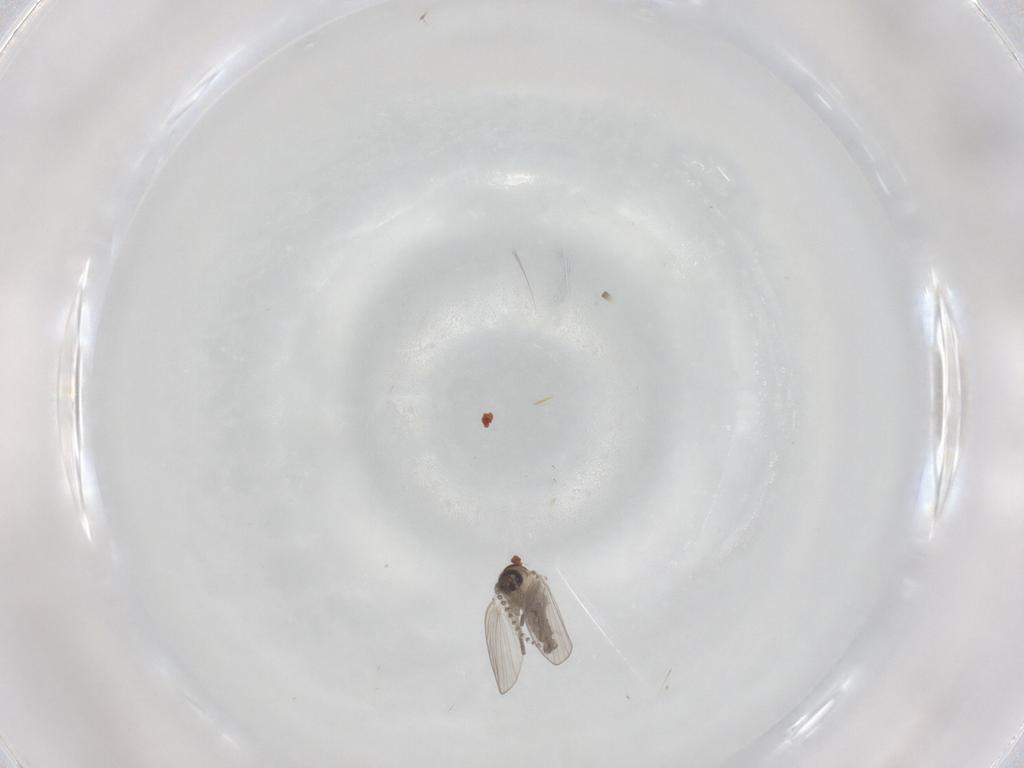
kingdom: Animalia
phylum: Arthropoda
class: Insecta
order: Diptera
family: Psychodidae
